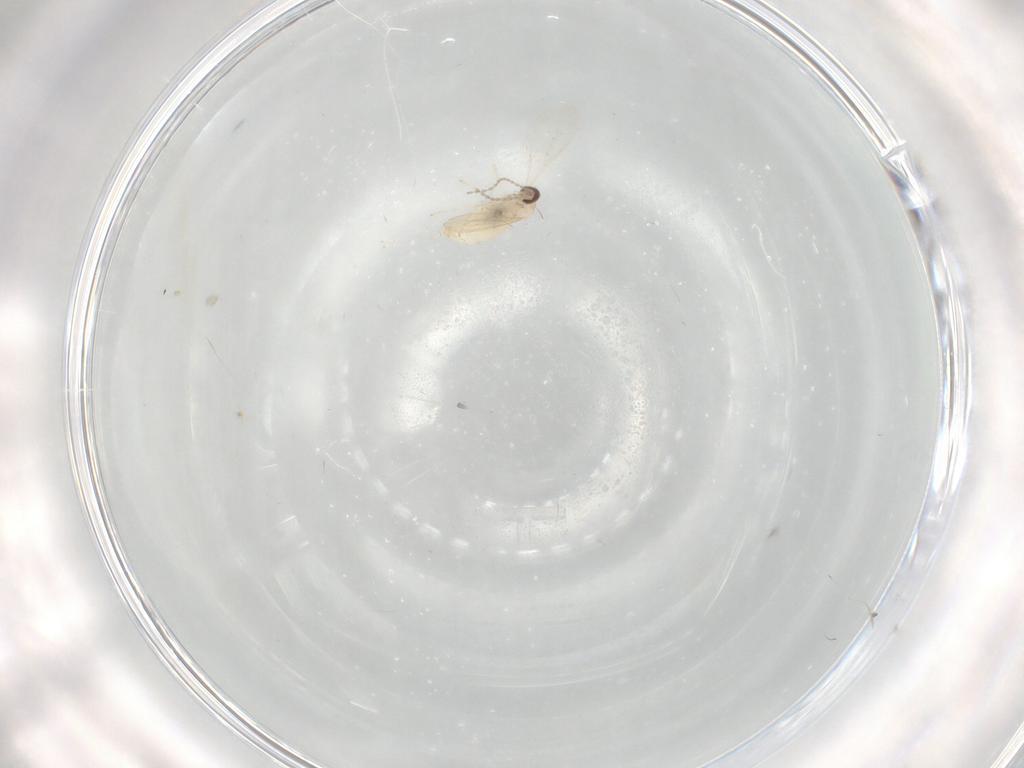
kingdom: Animalia
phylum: Arthropoda
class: Insecta
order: Diptera
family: Cecidomyiidae
